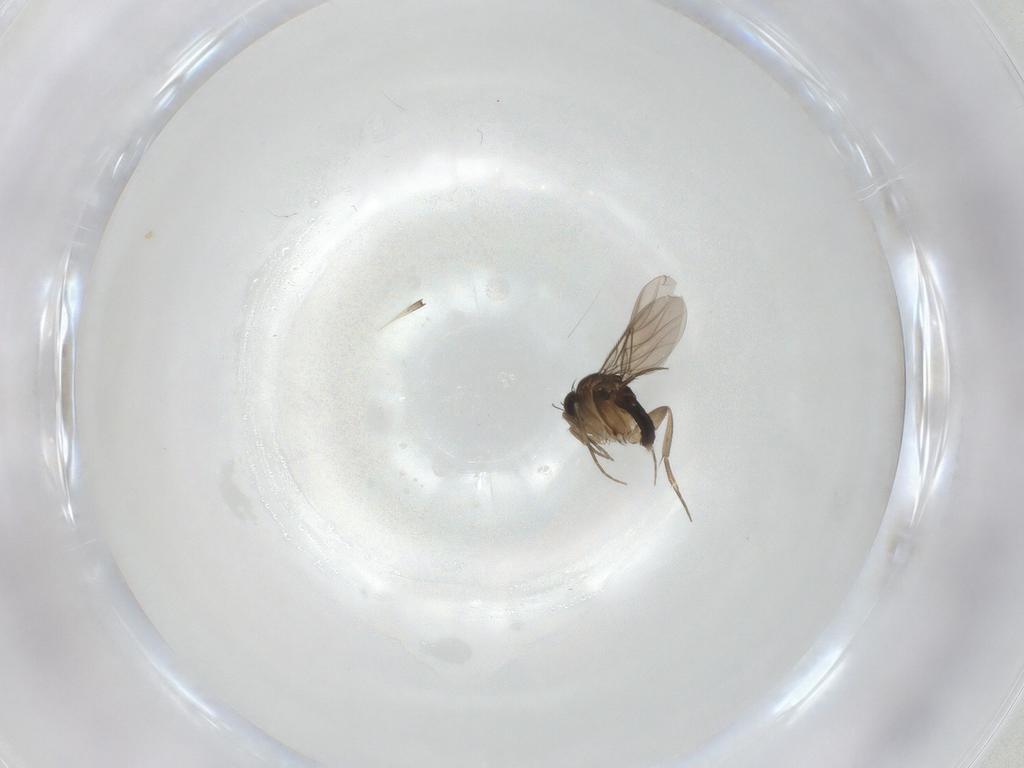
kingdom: Animalia
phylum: Arthropoda
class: Insecta
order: Diptera
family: Phoridae
